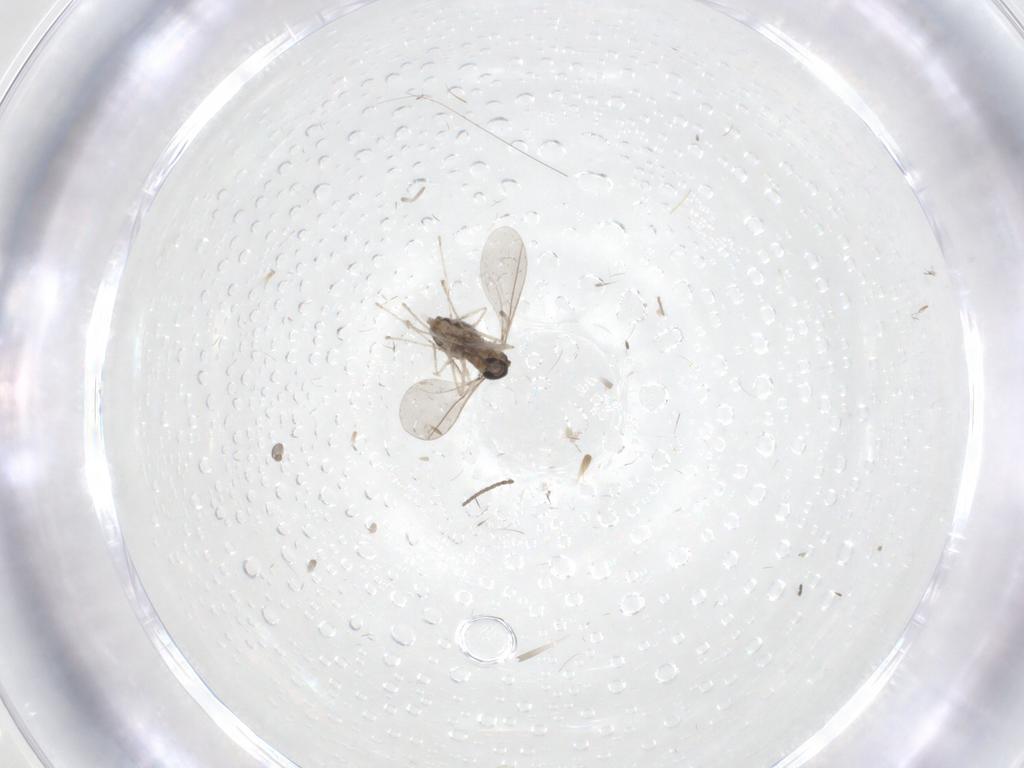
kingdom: Animalia
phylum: Arthropoda
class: Insecta
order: Diptera
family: Cecidomyiidae
